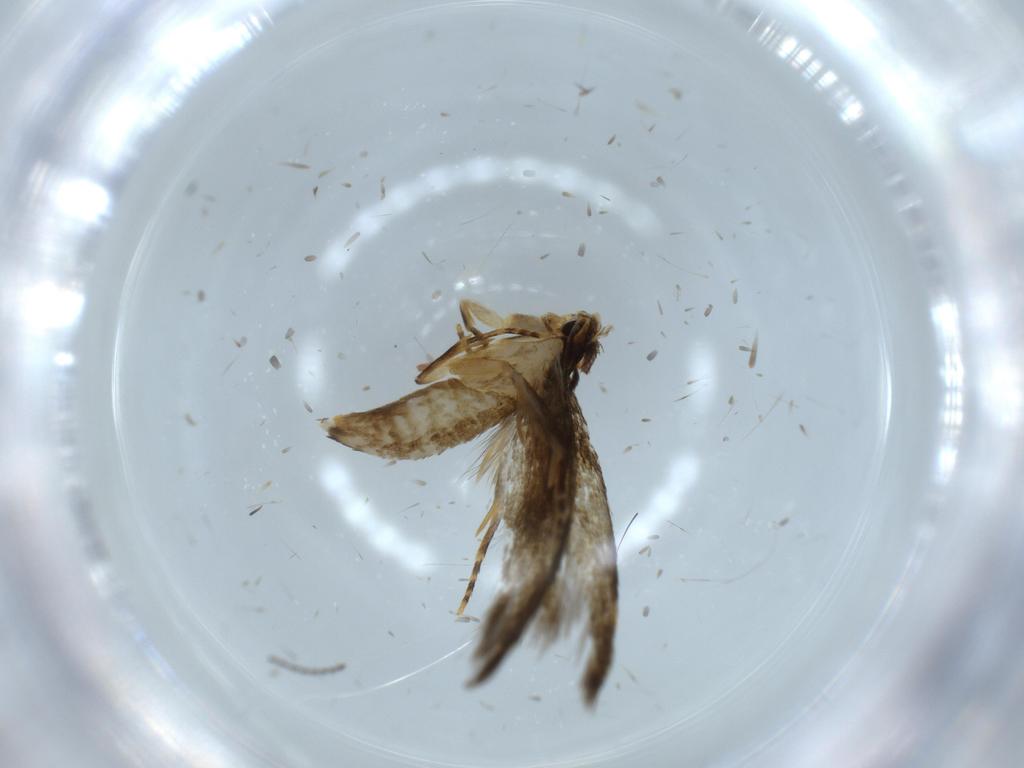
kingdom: Animalia
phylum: Arthropoda
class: Insecta
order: Lepidoptera
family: Tineidae
